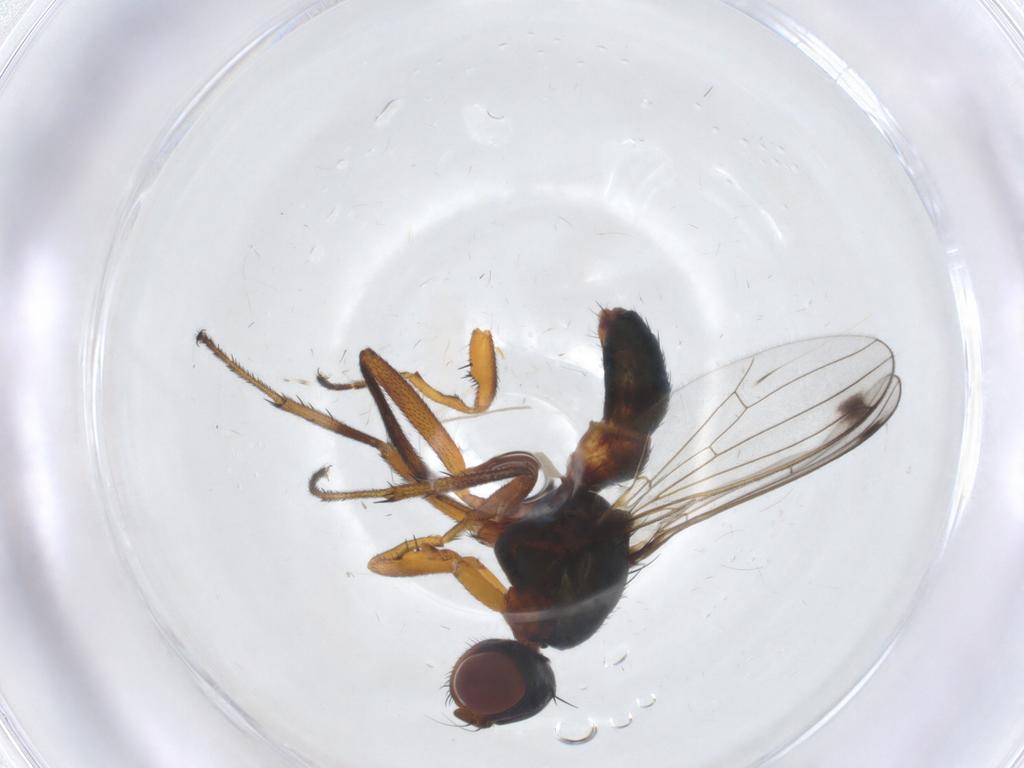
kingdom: Animalia
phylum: Arthropoda
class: Insecta
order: Diptera
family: Sepsidae
